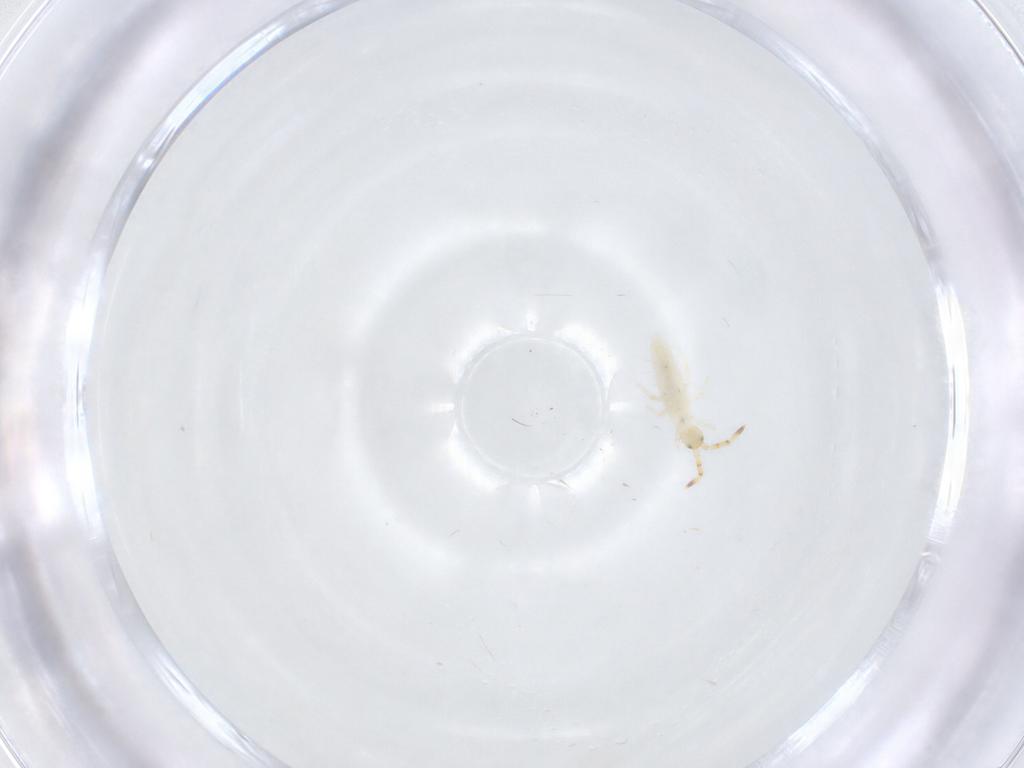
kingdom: Animalia
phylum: Arthropoda
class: Collembola
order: Entomobryomorpha
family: Entomobryidae
